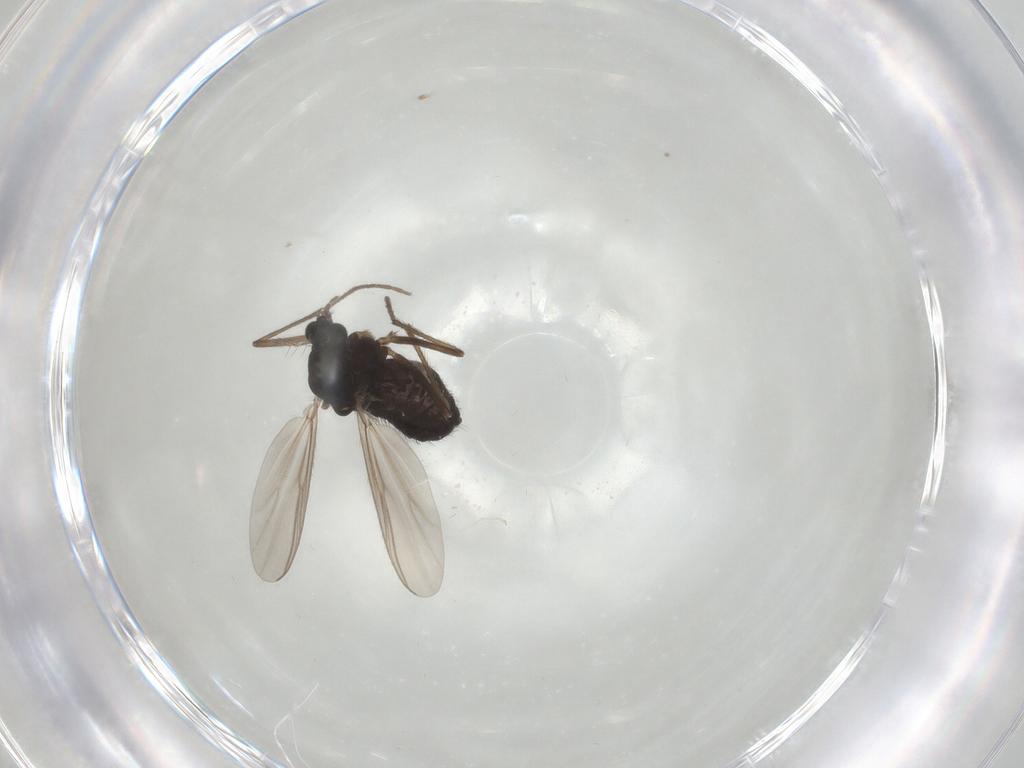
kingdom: Animalia
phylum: Arthropoda
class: Insecta
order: Diptera
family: Chironomidae
